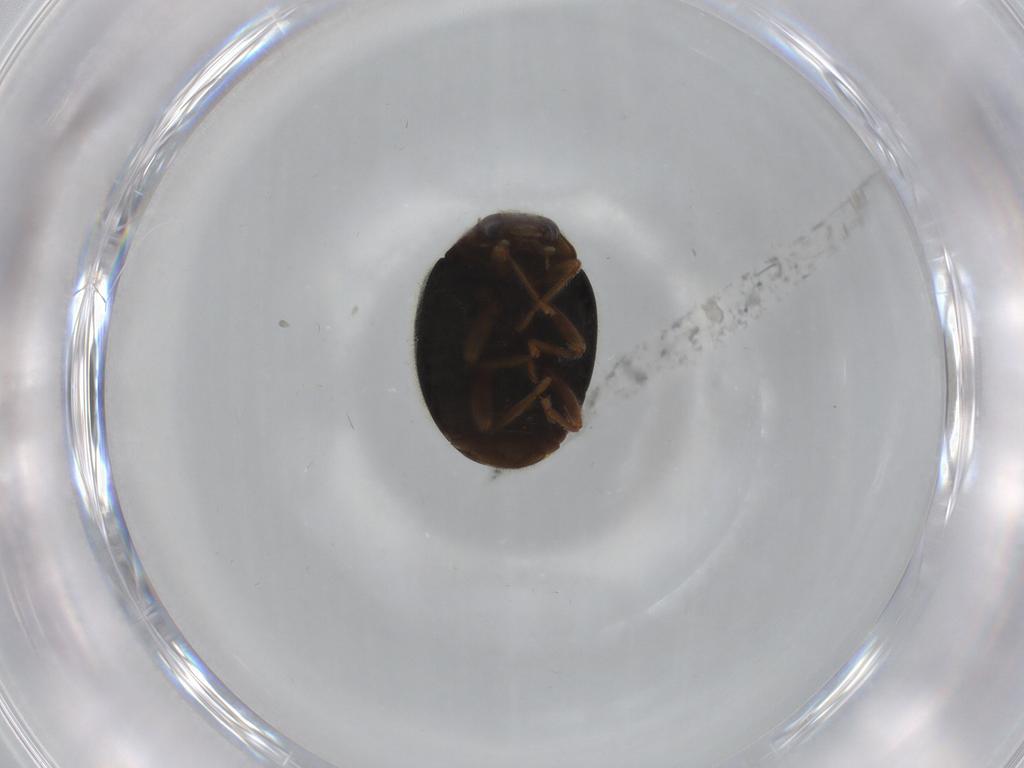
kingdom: Animalia
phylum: Arthropoda
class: Insecta
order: Coleoptera
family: Coccinellidae
